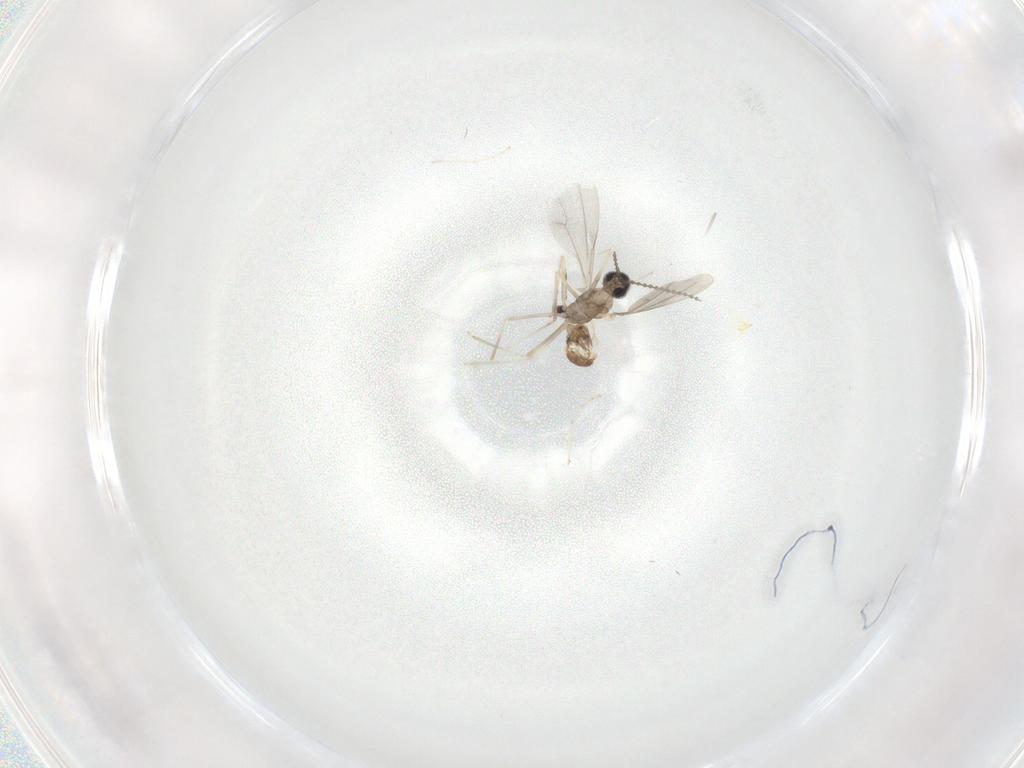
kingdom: Animalia
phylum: Arthropoda
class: Insecta
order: Diptera
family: Cecidomyiidae
